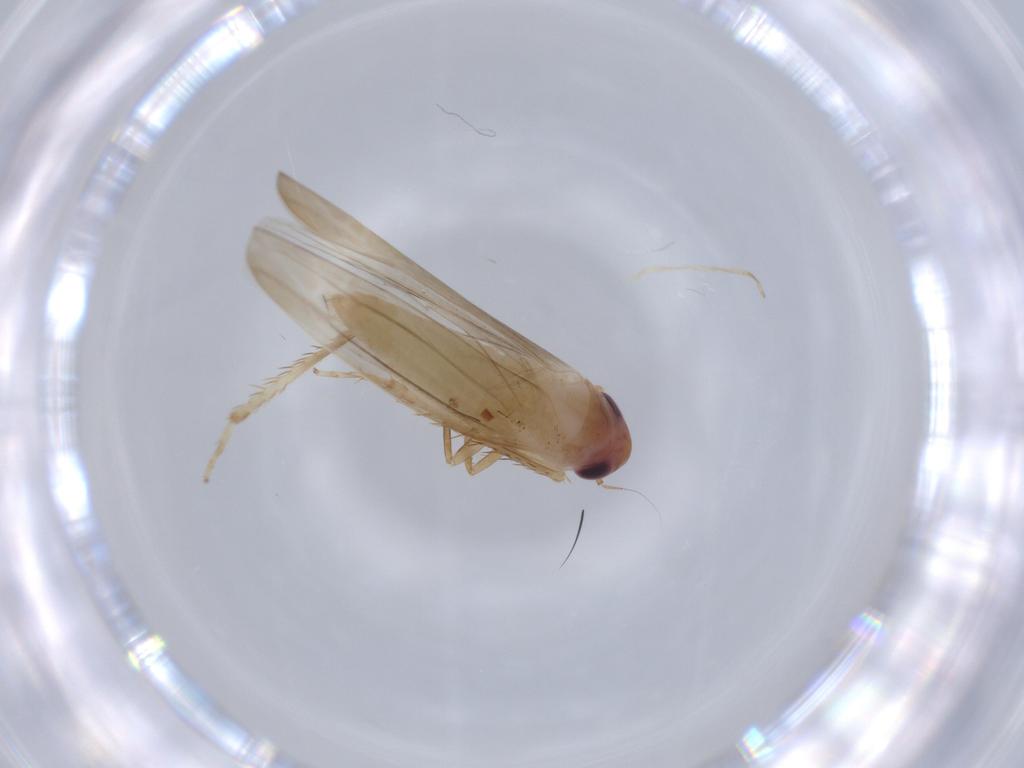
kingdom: Animalia
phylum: Arthropoda
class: Insecta
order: Hemiptera
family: Cicadellidae
